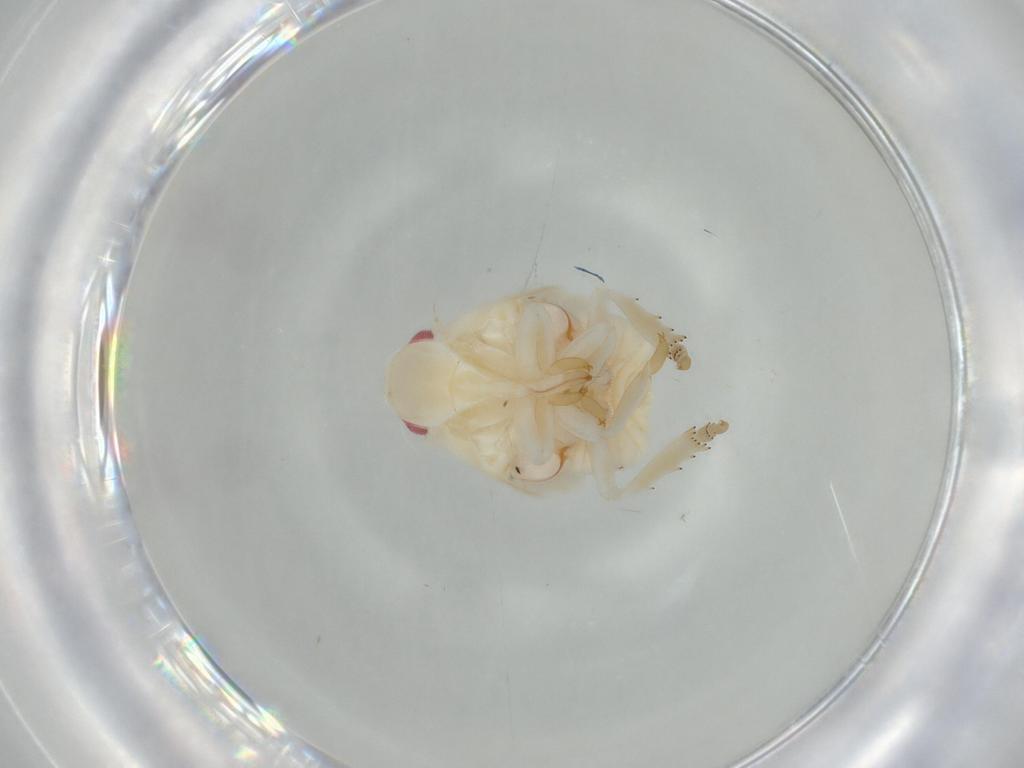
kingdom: Animalia
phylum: Arthropoda
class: Insecta
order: Hemiptera
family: Flatidae
